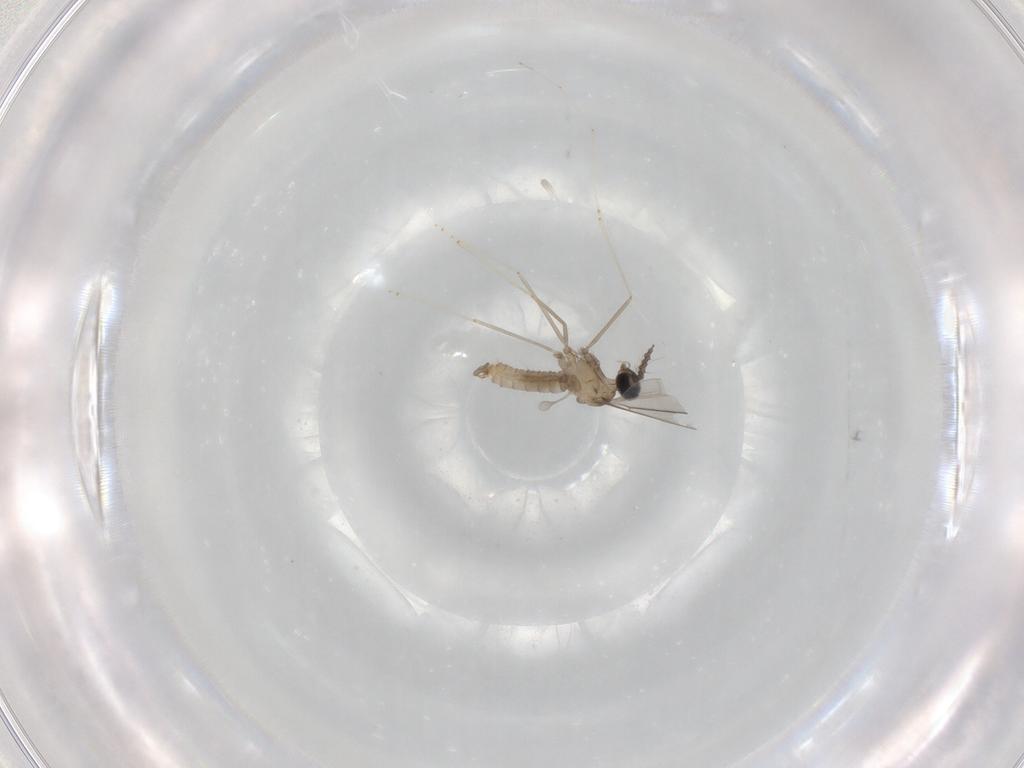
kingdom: Animalia
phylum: Arthropoda
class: Insecta
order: Diptera
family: Cecidomyiidae
